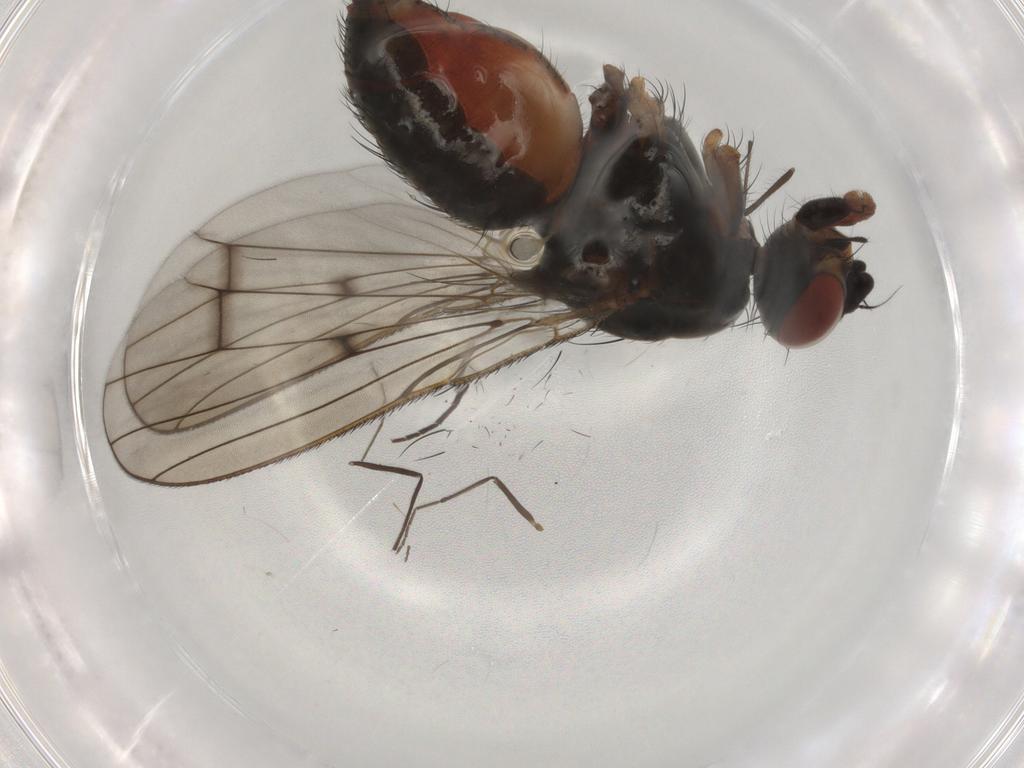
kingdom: Animalia
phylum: Arthropoda
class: Insecta
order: Diptera
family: Anthomyiidae
